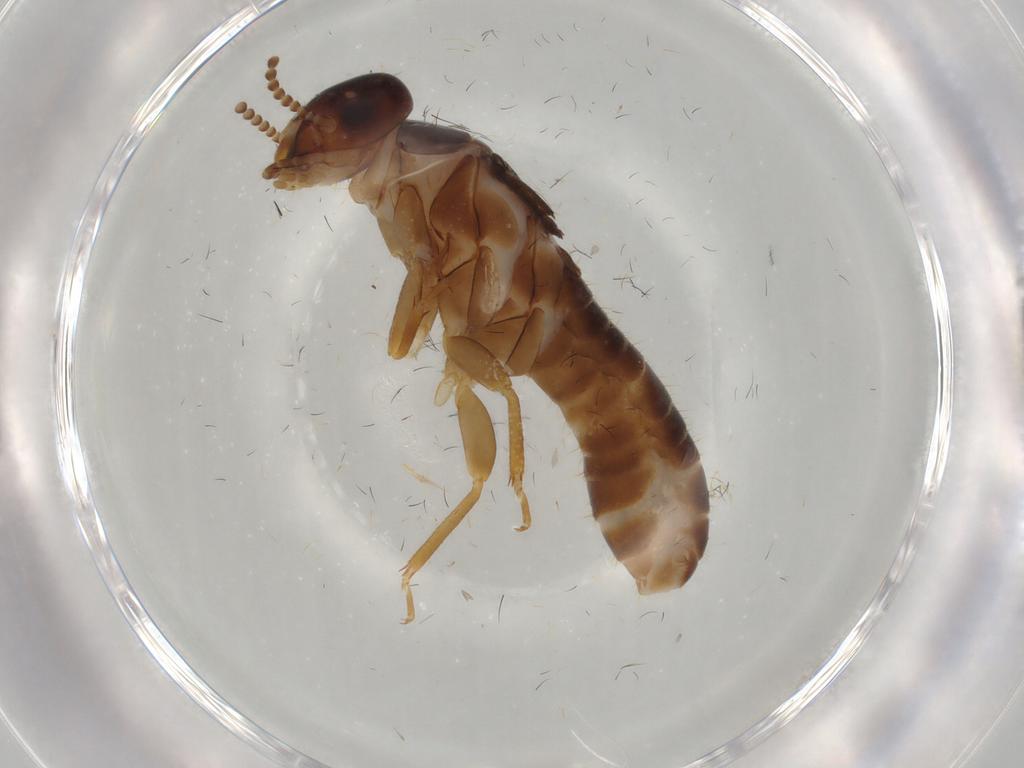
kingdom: Animalia
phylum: Arthropoda
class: Insecta
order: Blattodea
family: Kalotermitidae
